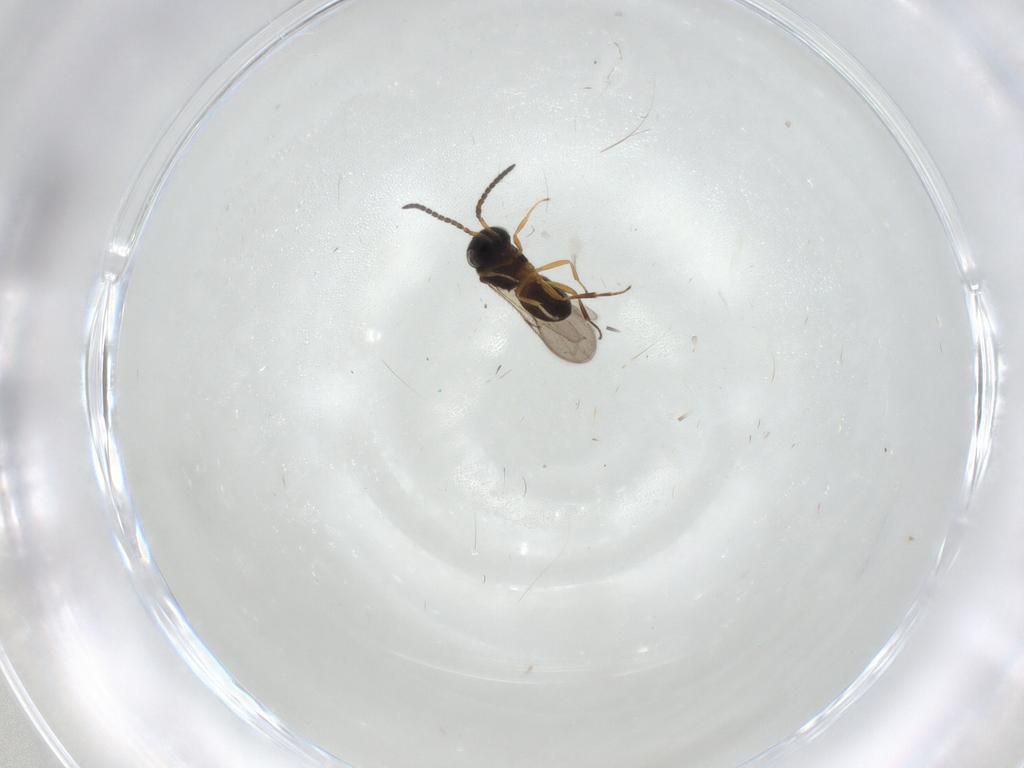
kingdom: Animalia
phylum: Arthropoda
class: Insecta
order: Hymenoptera
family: Scelionidae
